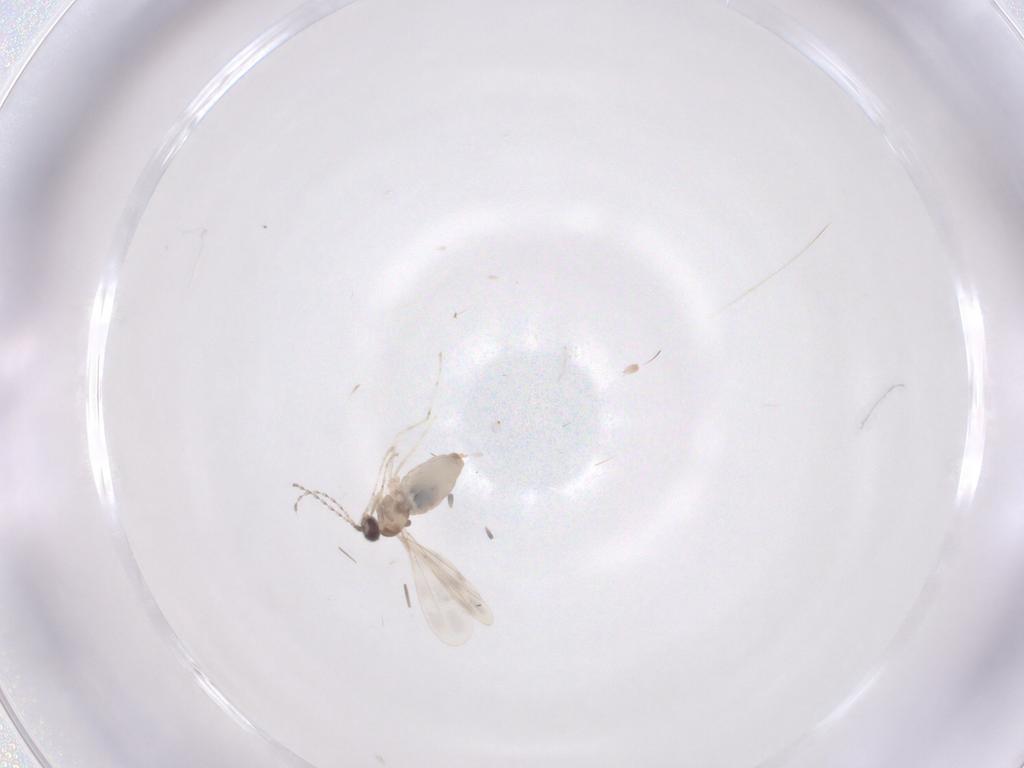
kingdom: Animalia
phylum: Arthropoda
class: Insecta
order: Diptera
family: Cecidomyiidae
